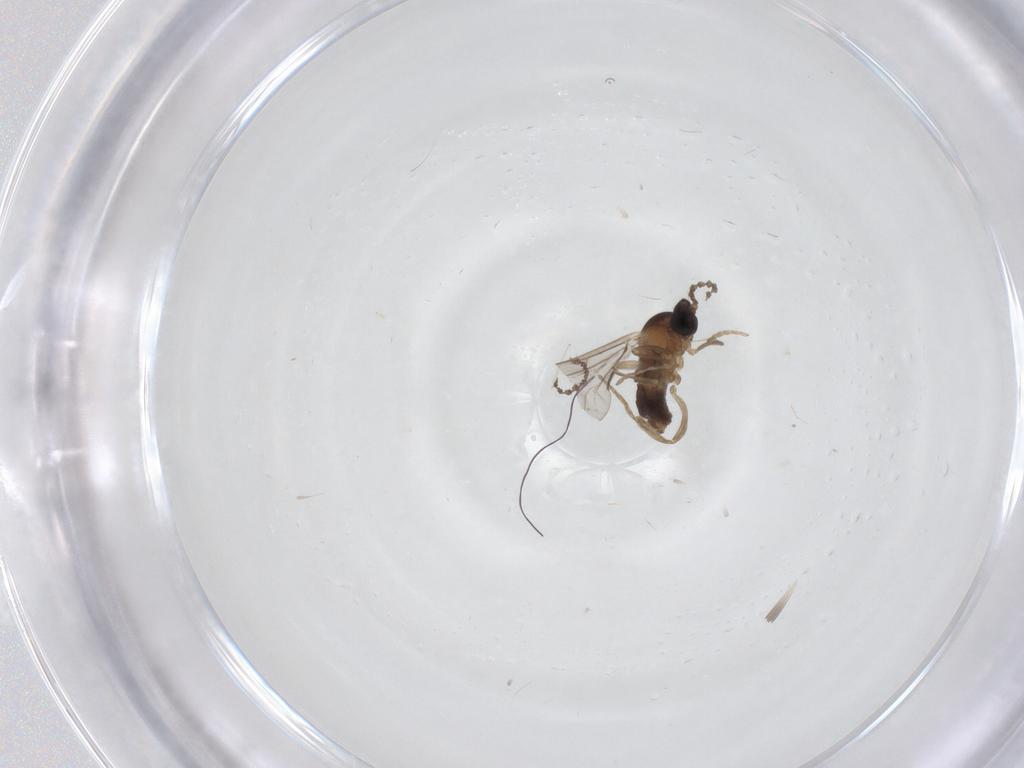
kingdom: Animalia
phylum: Arthropoda
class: Insecta
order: Diptera
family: Cecidomyiidae
